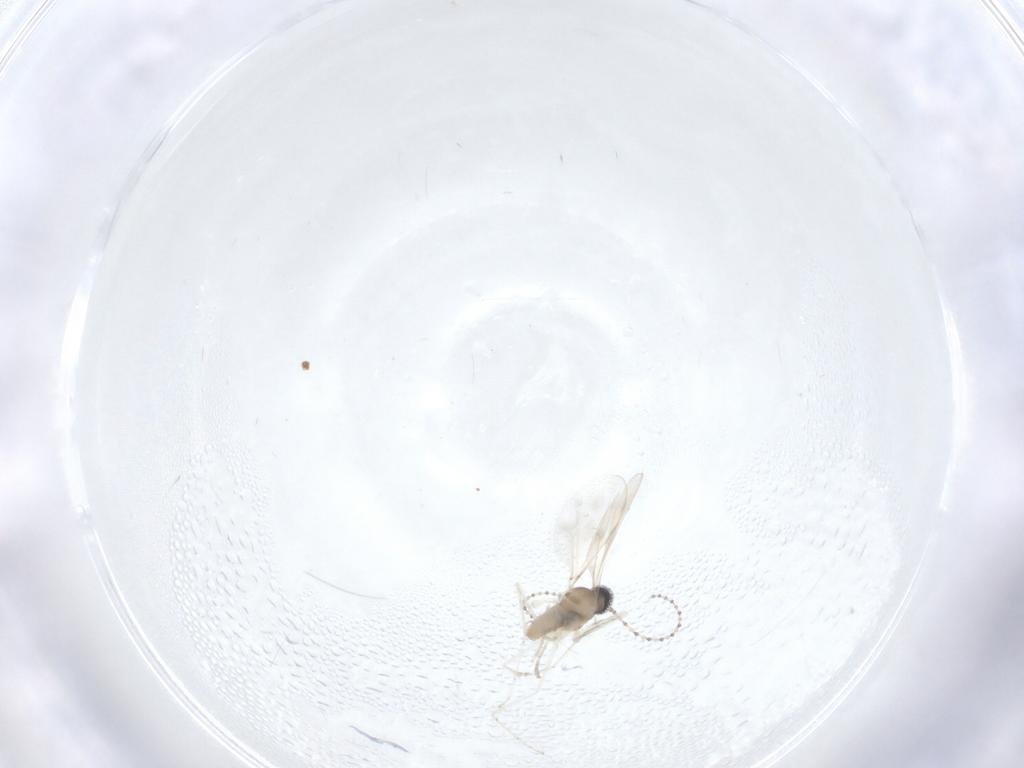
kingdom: Animalia
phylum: Arthropoda
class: Insecta
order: Diptera
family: Cecidomyiidae
